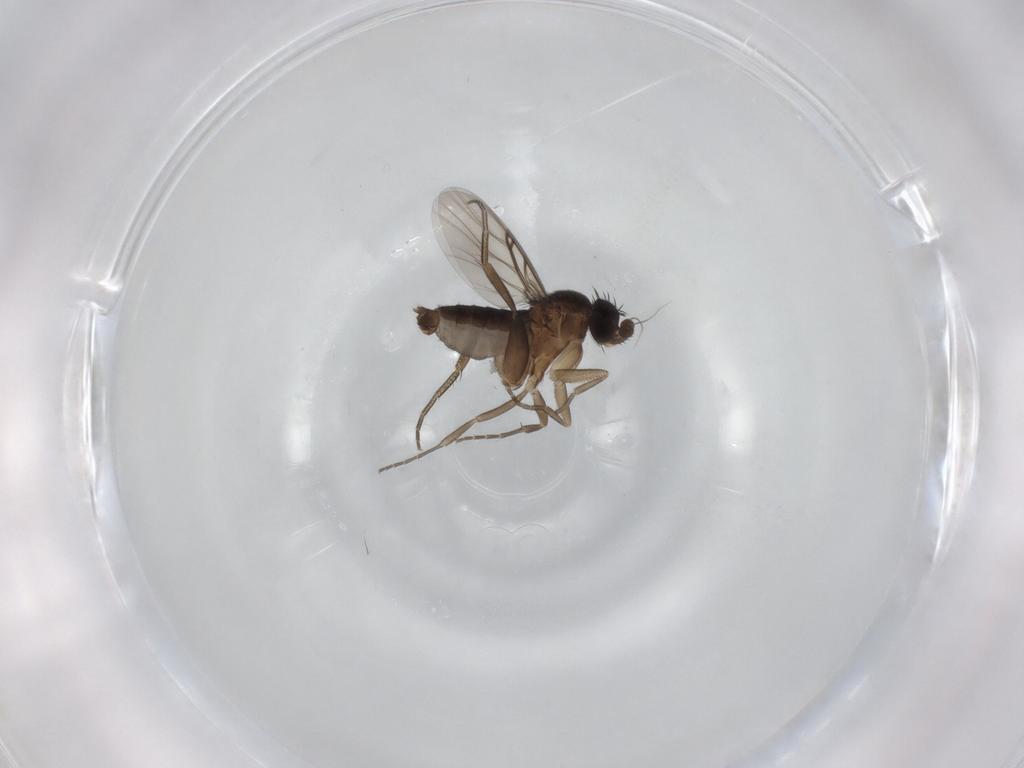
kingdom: Animalia
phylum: Arthropoda
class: Insecta
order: Diptera
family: Phoridae
